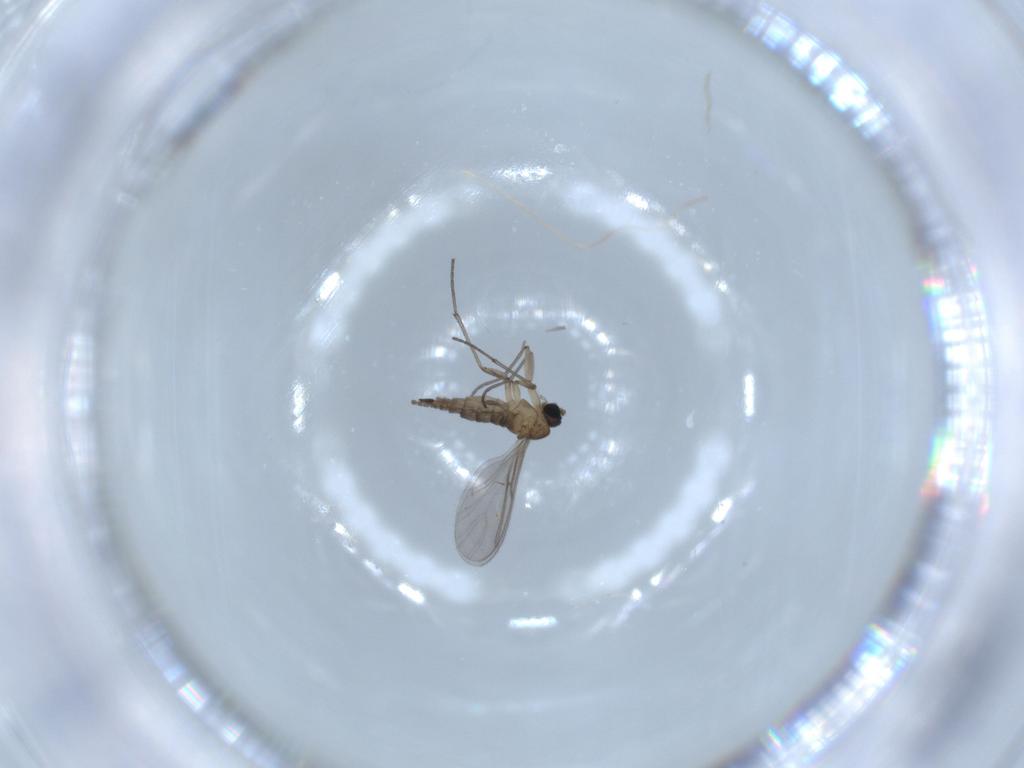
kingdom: Animalia
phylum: Arthropoda
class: Insecta
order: Diptera
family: Sciaridae
